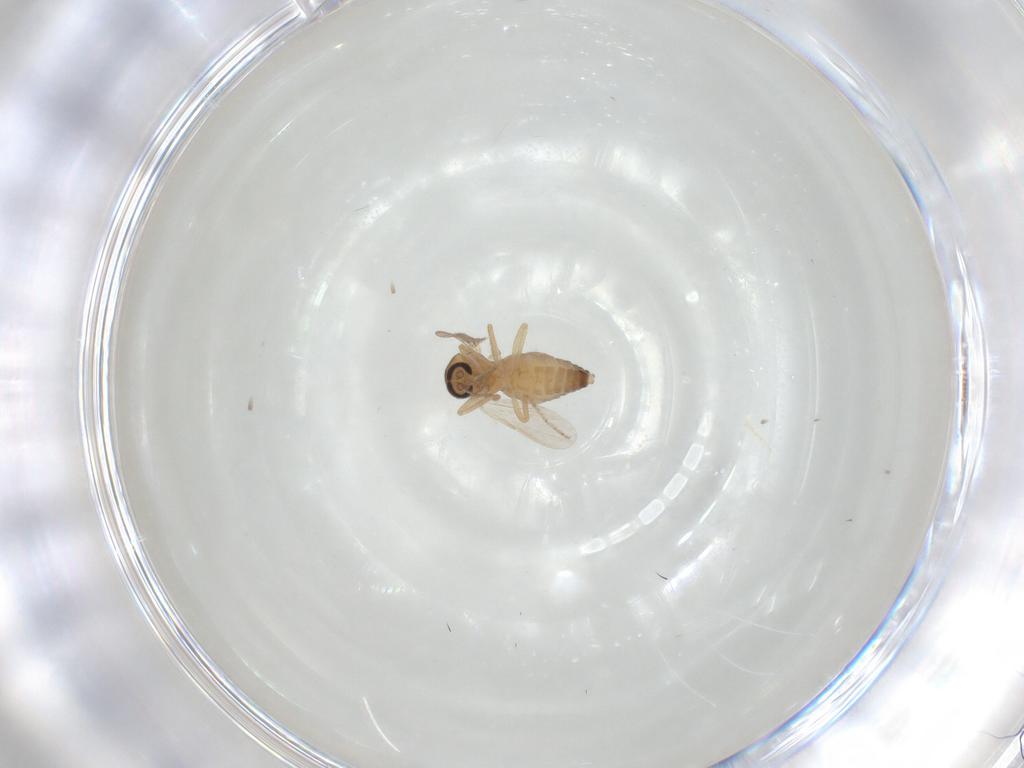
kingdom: Animalia
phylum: Arthropoda
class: Insecta
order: Diptera
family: Ceratopogonidae
